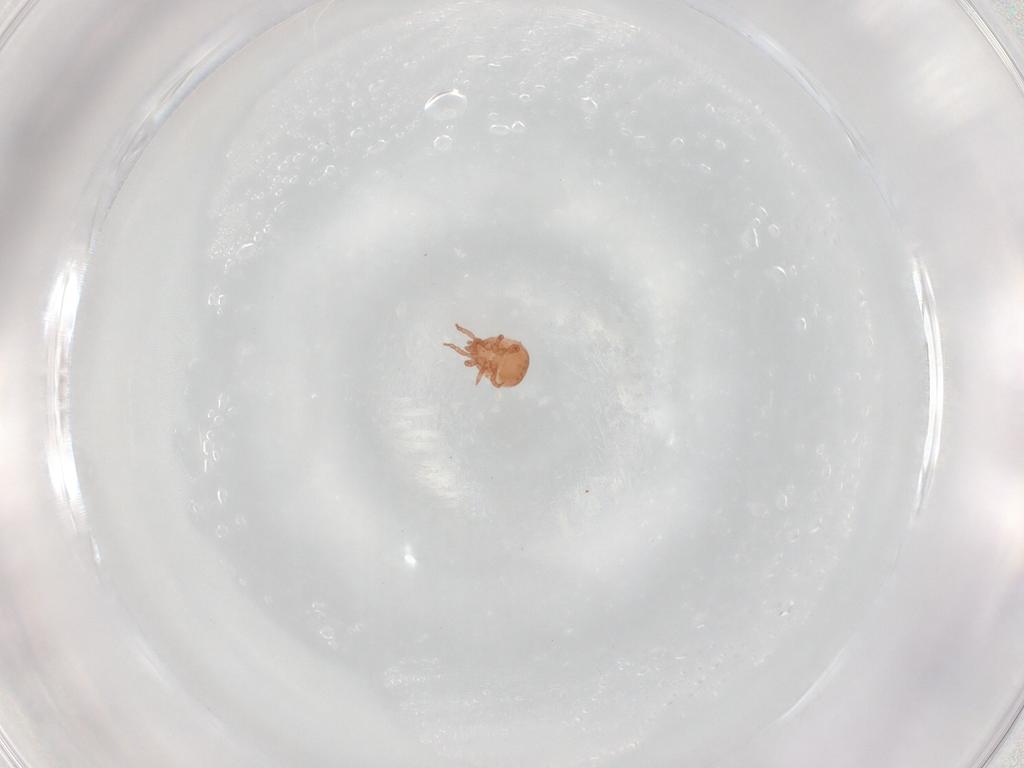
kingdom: Animalia
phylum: Arthropoda
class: Arachnida
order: Mesostigmata
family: Zerconidae
